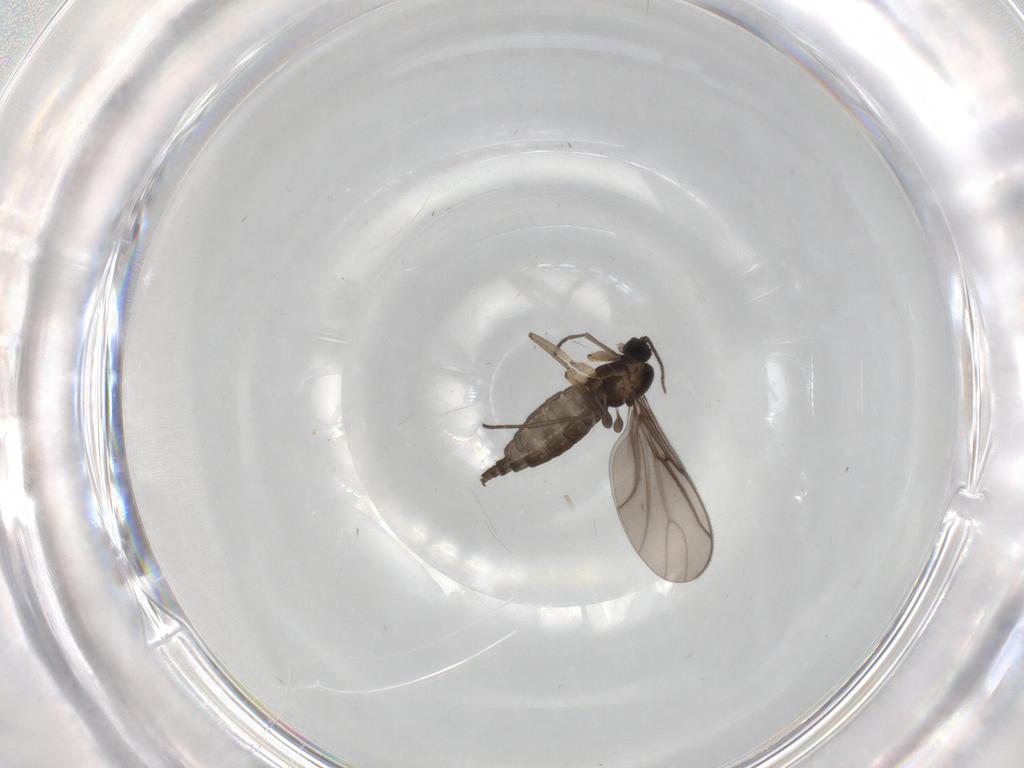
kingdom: Animalia
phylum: Arthropoda
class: Insecta
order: Diptera
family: Sciaridae
